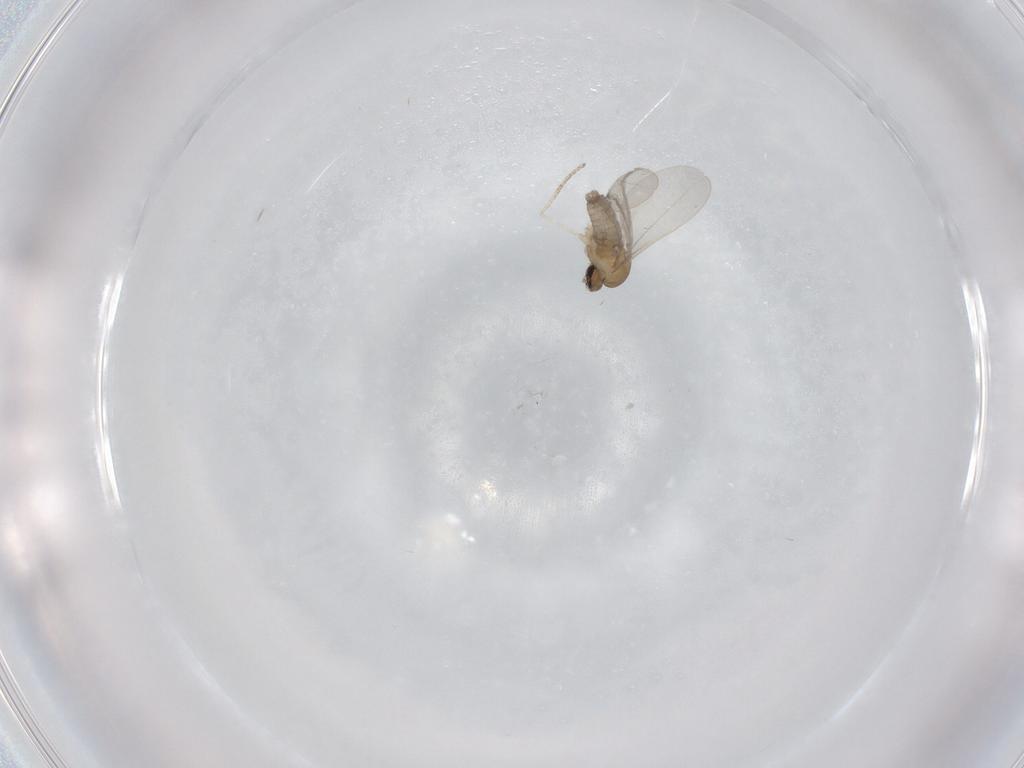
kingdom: Animalia
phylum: Arthropoda
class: Insecta
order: Diptera
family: Cecidomyiidae
